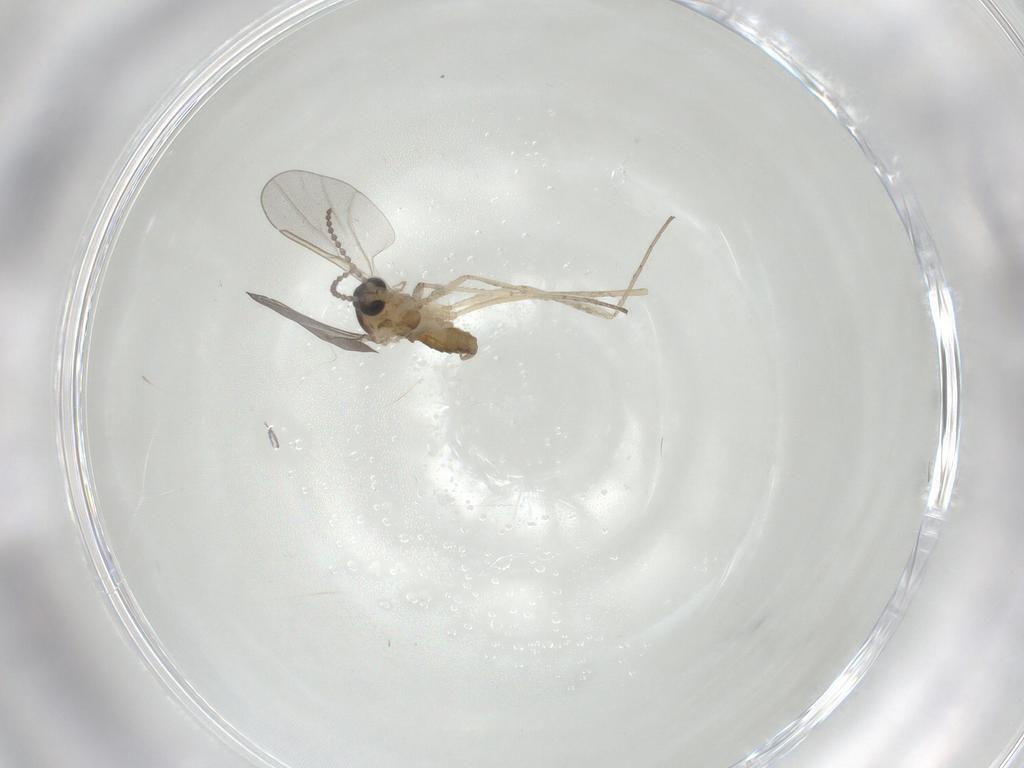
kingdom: Animalia
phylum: Arthropoda
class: Insecta
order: Diptera
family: Cecidomyiidae
